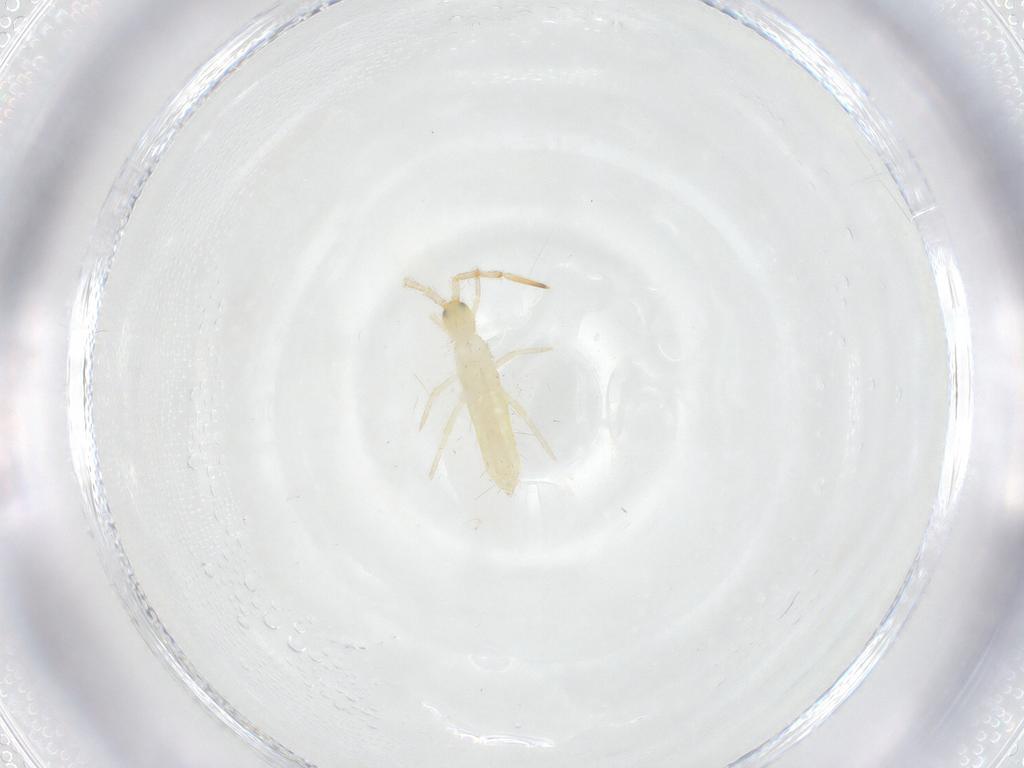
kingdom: Animalia
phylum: Arthropoda
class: Collembola
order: Entomobryomorpha
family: Entomobryidae
